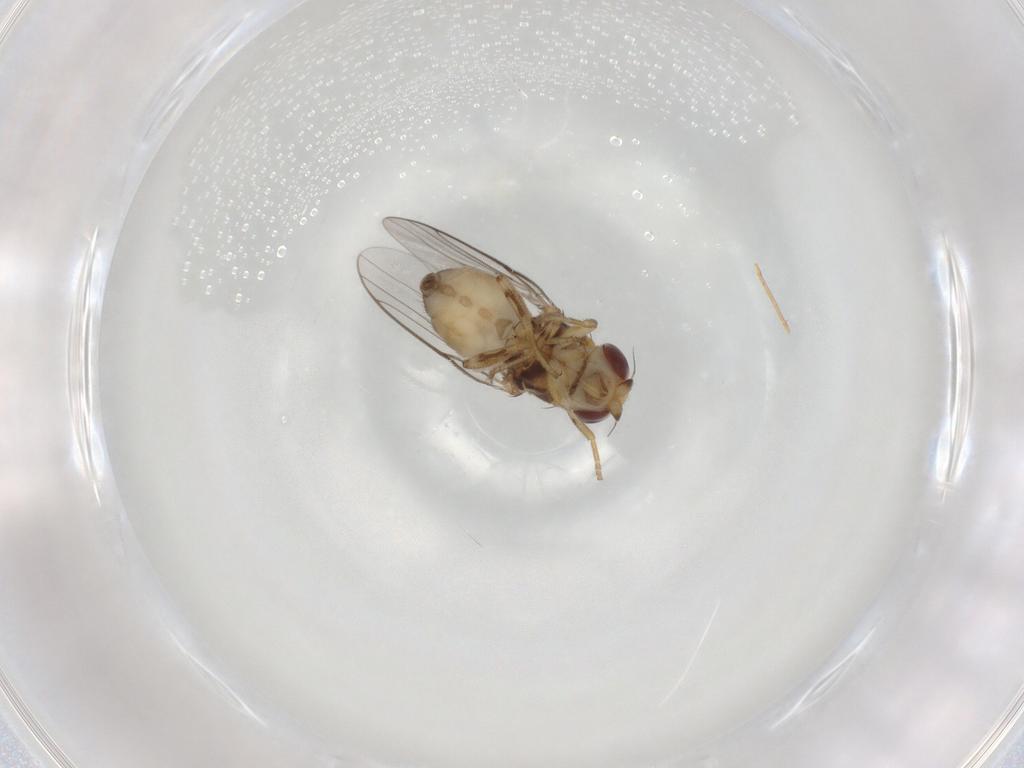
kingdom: Animalia
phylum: Arthropoda
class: Insecta
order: Diptera
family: Chloropidae
